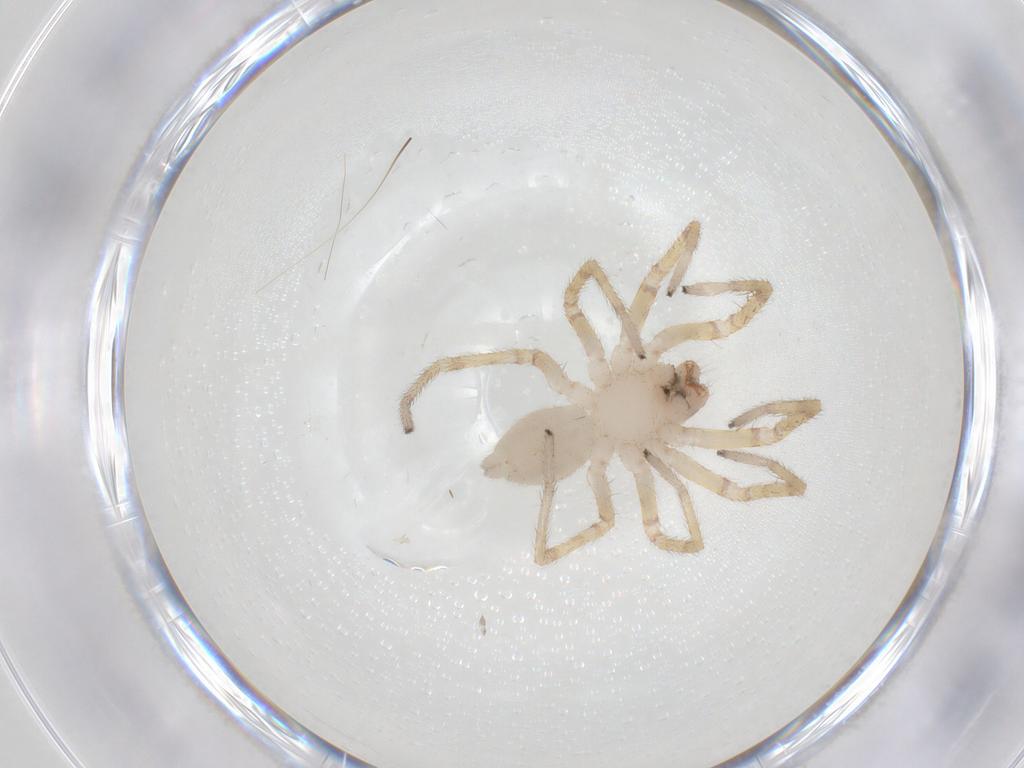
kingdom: Animalia
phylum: Arthropoda
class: Arachnida
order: Araneae
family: Corinnidae
